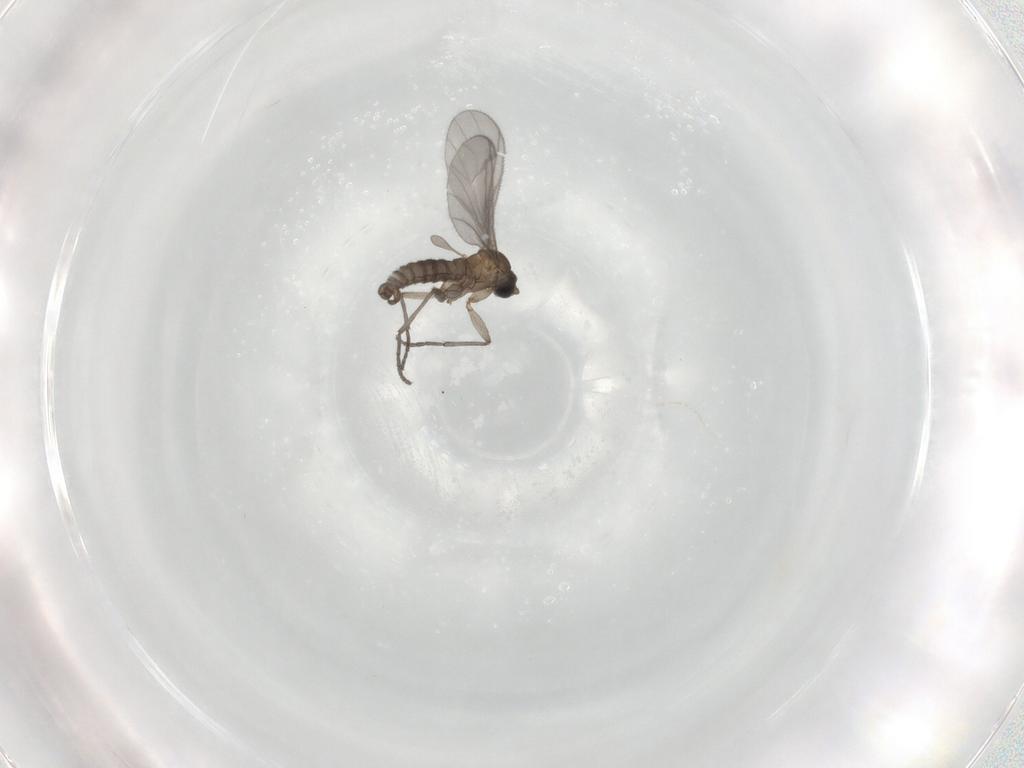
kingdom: Animalia
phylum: Arthropoda
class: Insecta
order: Diptera
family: Sciaridae
